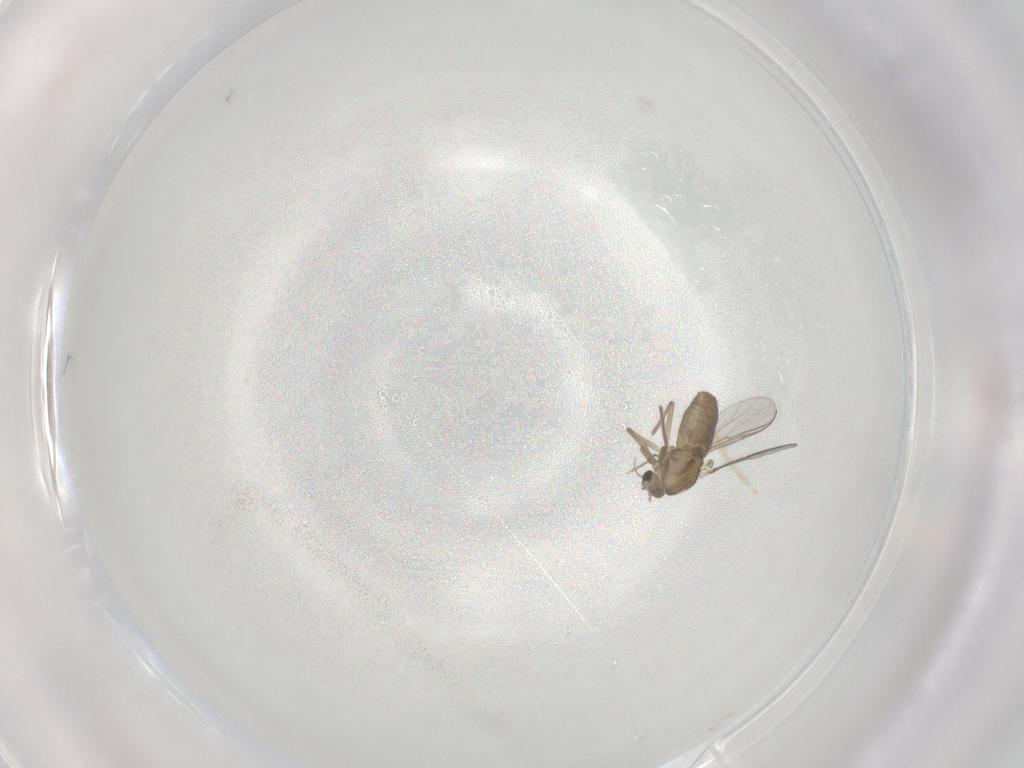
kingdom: Animalia
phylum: Arthropoda
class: Insecta
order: Diptera
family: Chironomidae
